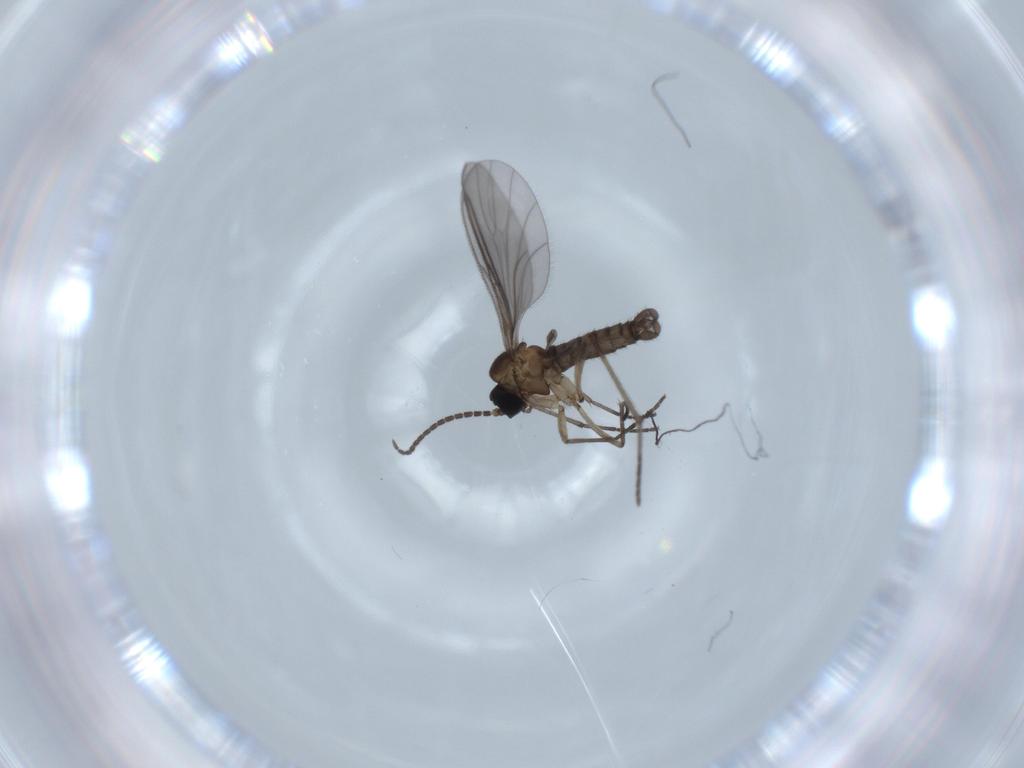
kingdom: Animalia
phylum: Arthropoda
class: Insecta
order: Diptera
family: Sciaridae
